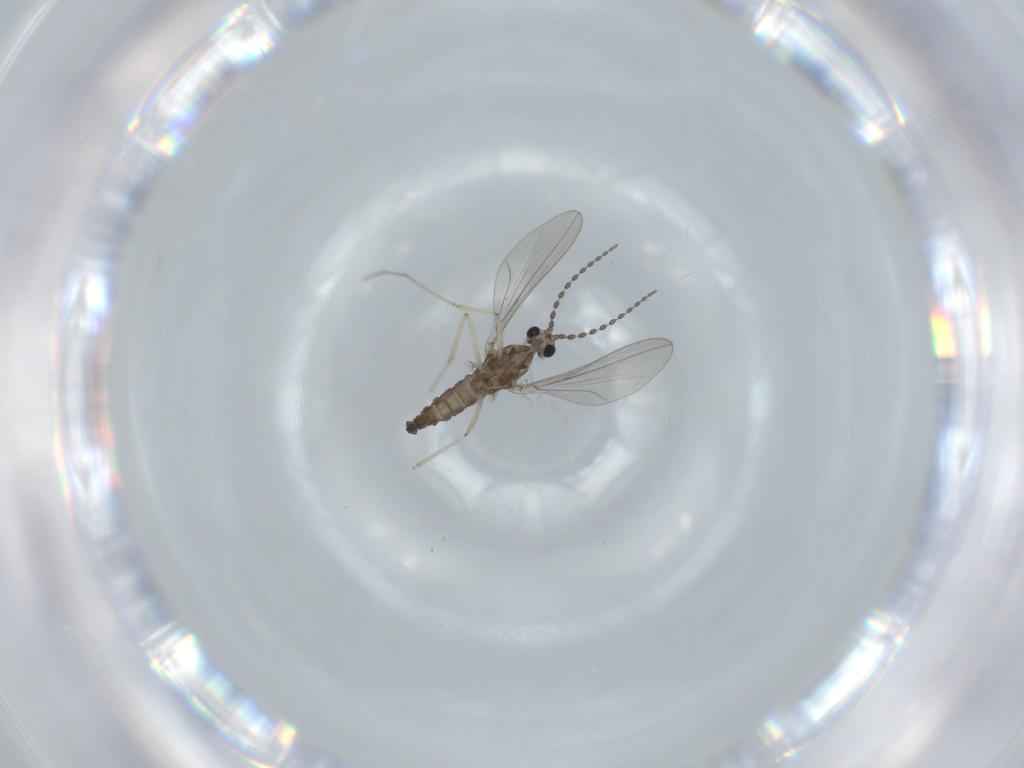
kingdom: Animalia
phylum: Arthropoda
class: Insecta
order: Diptera
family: Cecidomyiidae
